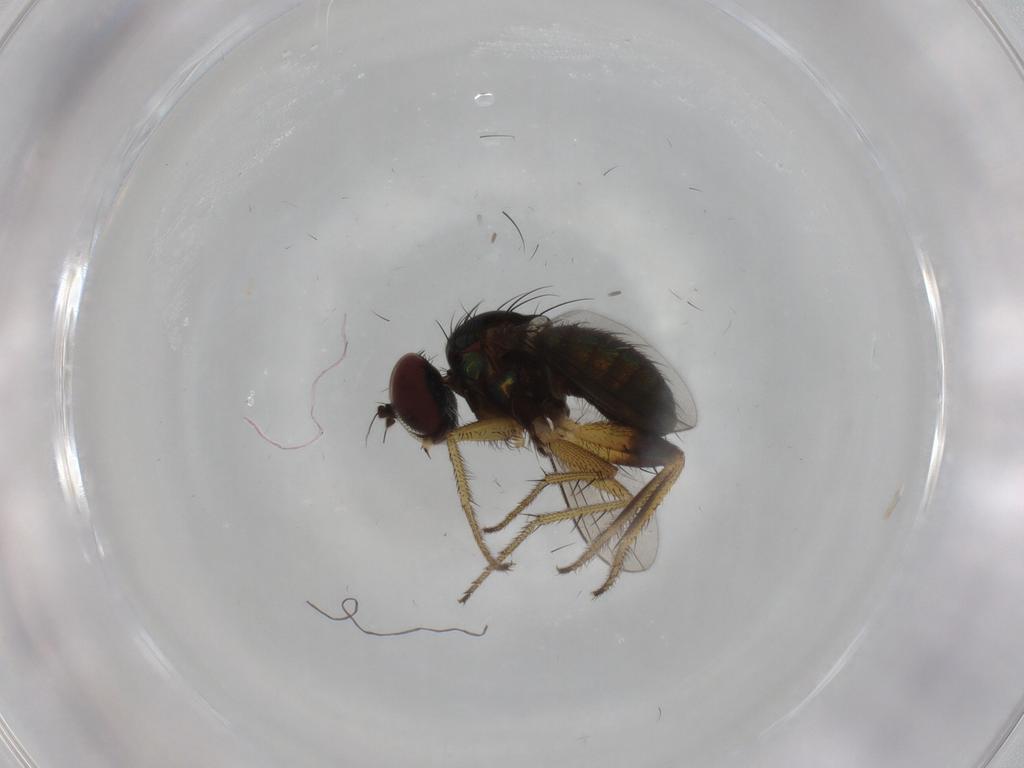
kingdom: Animalia
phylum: Arthropoda
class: Insecta
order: Diptera
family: Dolichopodidae
